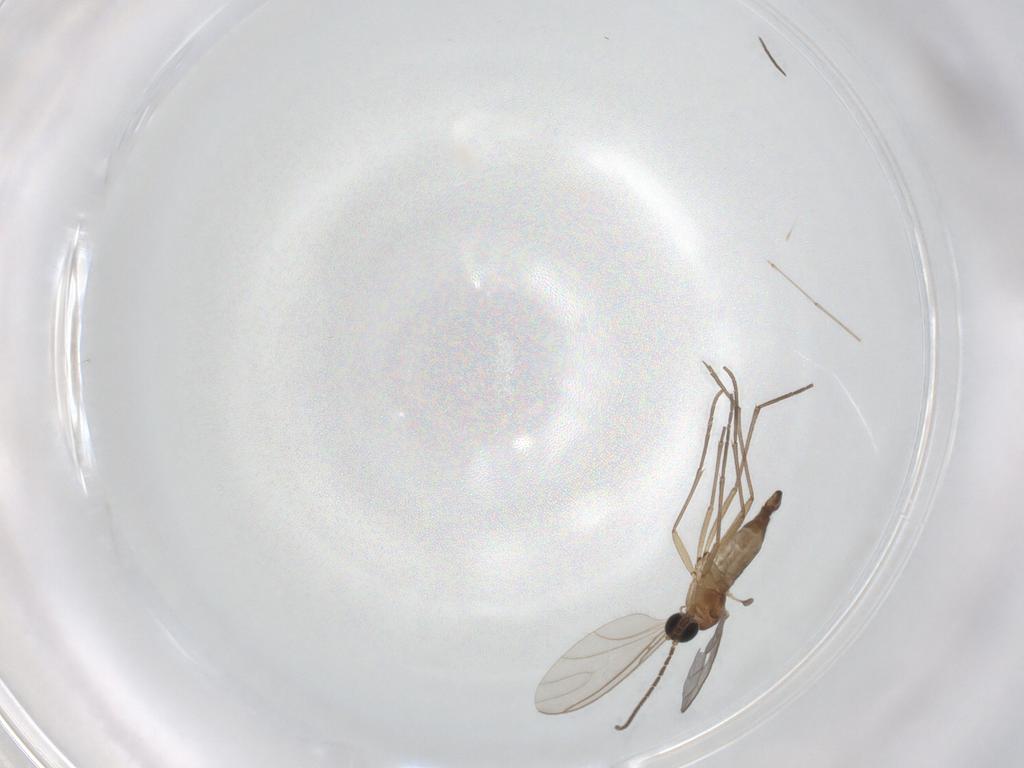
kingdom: Animalia
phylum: Arthropoda
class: Insecta
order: Diptera
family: Sciaridae
